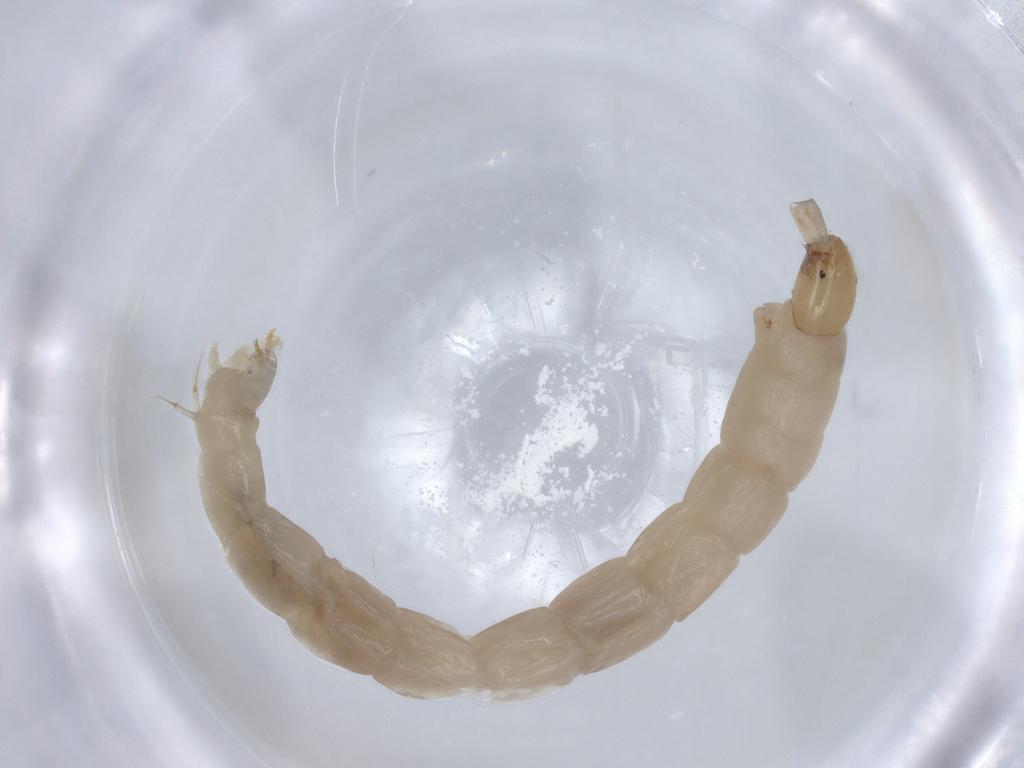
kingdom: Animalia
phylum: Arthropoda
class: Insecta
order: Diptera
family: Chironomidae
